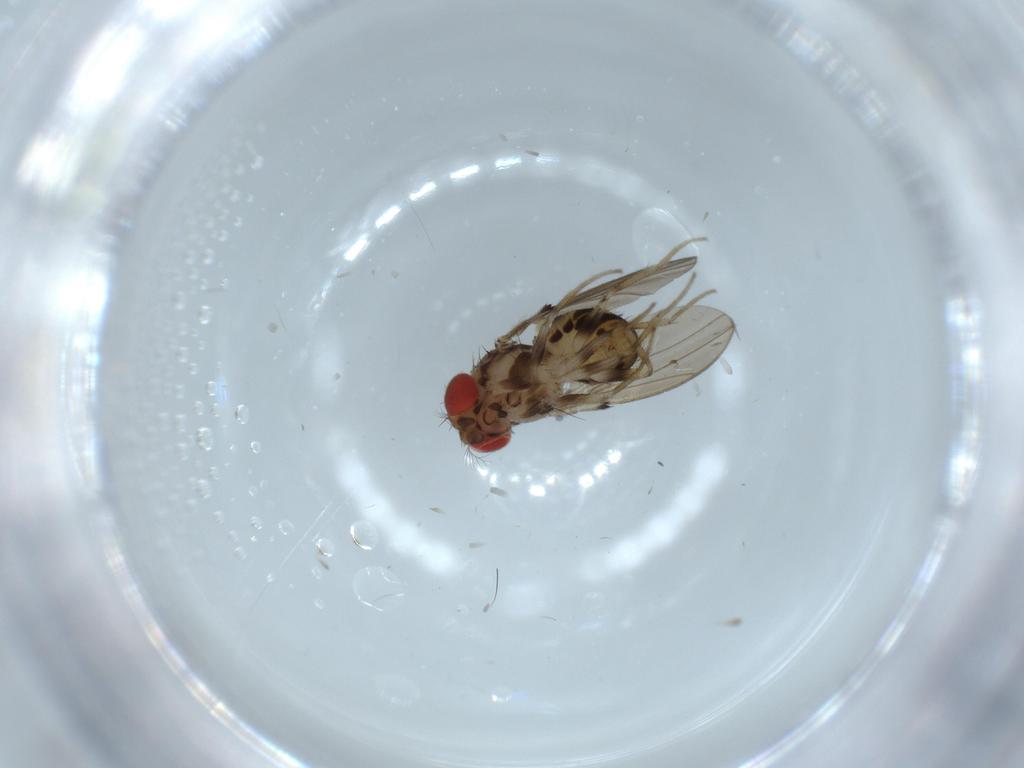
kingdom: Animalia
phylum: Arthropoda
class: Insecta
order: Diptera
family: Drosophilidae
